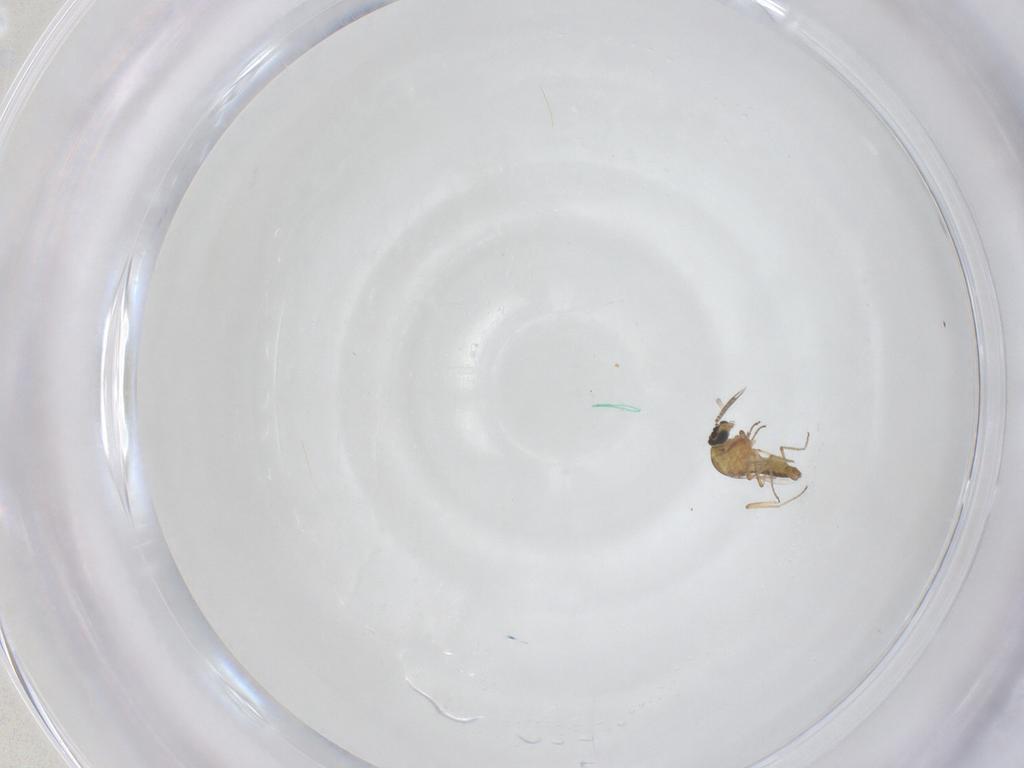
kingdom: Animalia
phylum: Arthropoda
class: Insecta
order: Diptera
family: Ceratopogonidae
